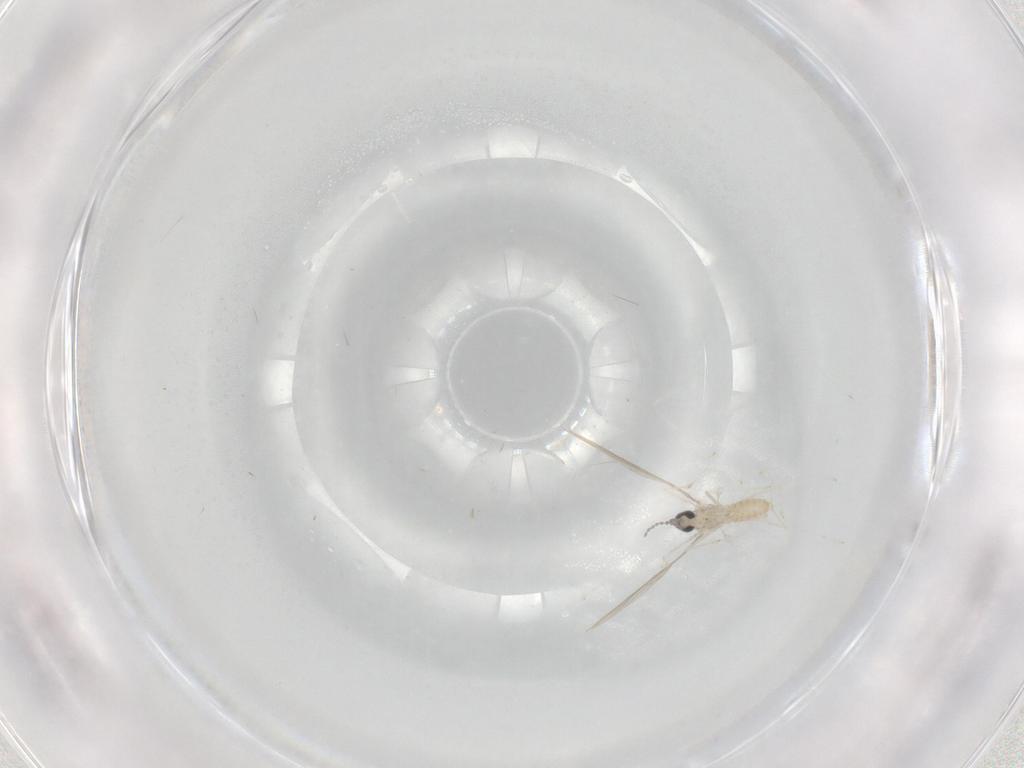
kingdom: Animalia
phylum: Arthropoda
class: Insecta
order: Diptera
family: Cecidomyiidae
